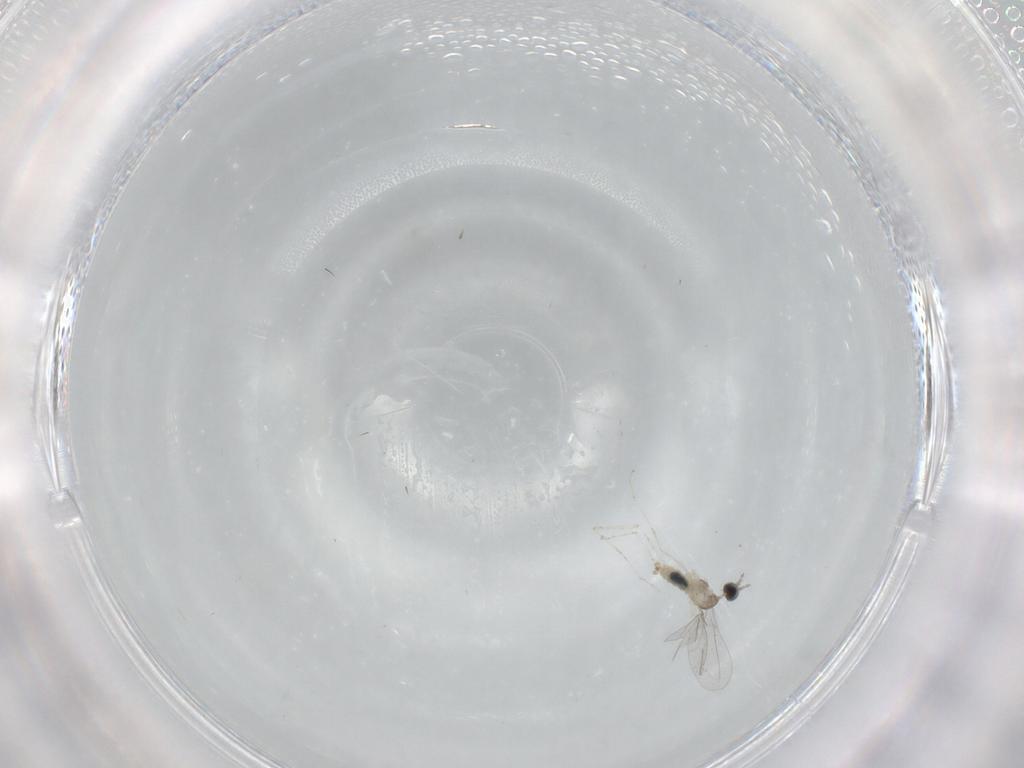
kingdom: Animalia
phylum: Arthropoda
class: Insecta
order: Diptera
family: Cecidomyiidae
